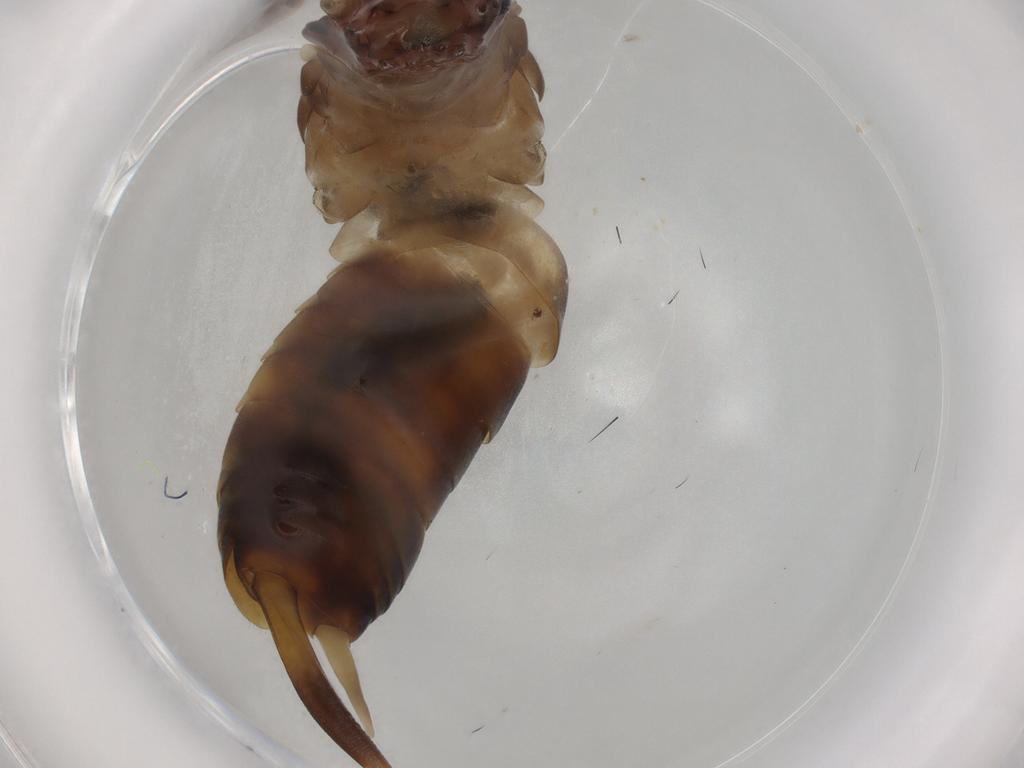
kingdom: Animalia
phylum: Arthropoda
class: Insecta
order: Dermaptera
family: Forficulidae
